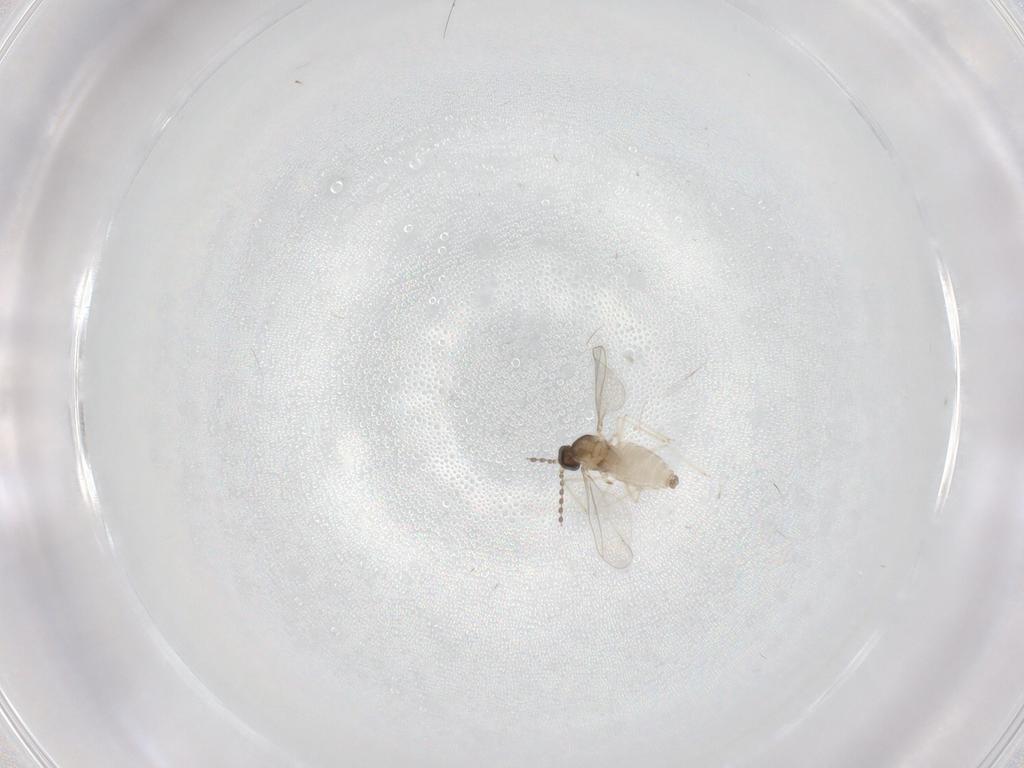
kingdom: Animalia
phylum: Arthropoda
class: Insecta
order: Diptera
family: Cecidomyiidae
